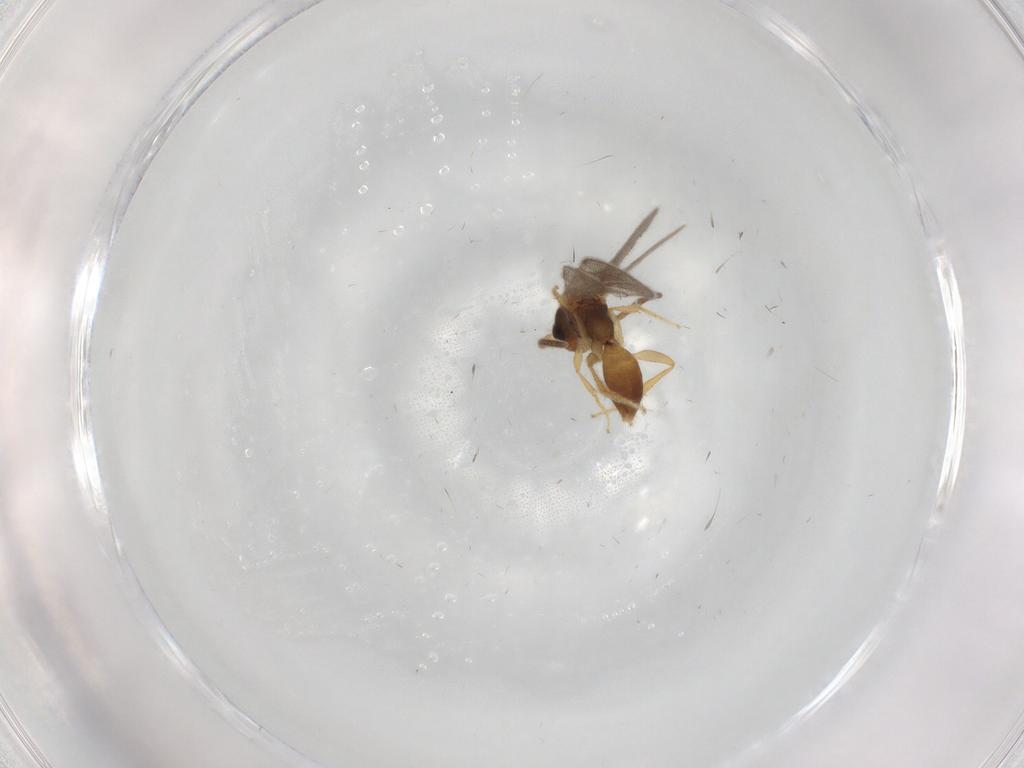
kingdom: Animalia
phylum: Arthropoda
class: Insecta
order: Hymenoptera
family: Bethylidae
